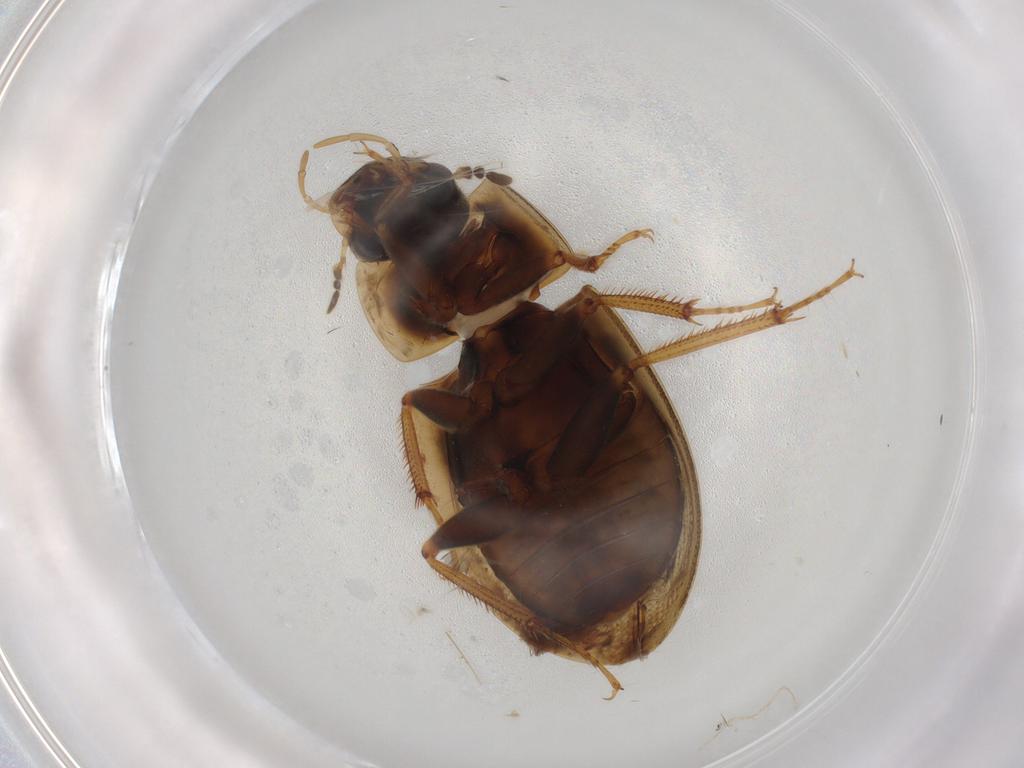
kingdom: Animalia
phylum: Arthropoda
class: Insecta
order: Coleoptera
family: Hydrophilidae
